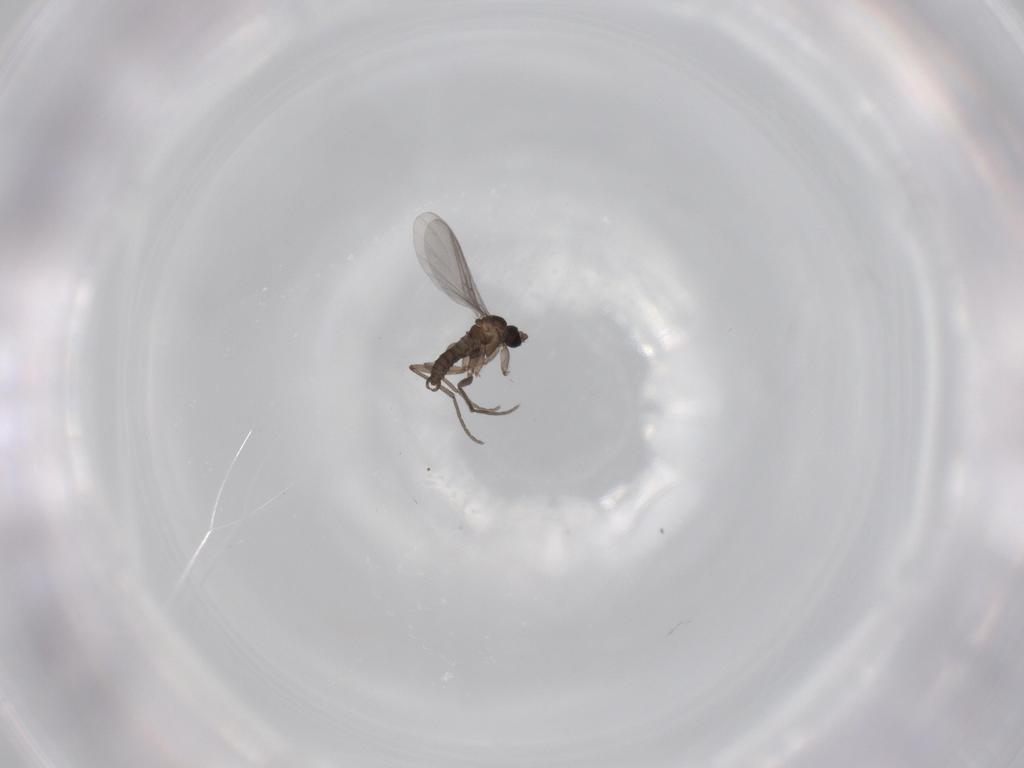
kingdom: Animalia
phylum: Arthropoda
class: Insecta
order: Diptera
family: Sciaridae
